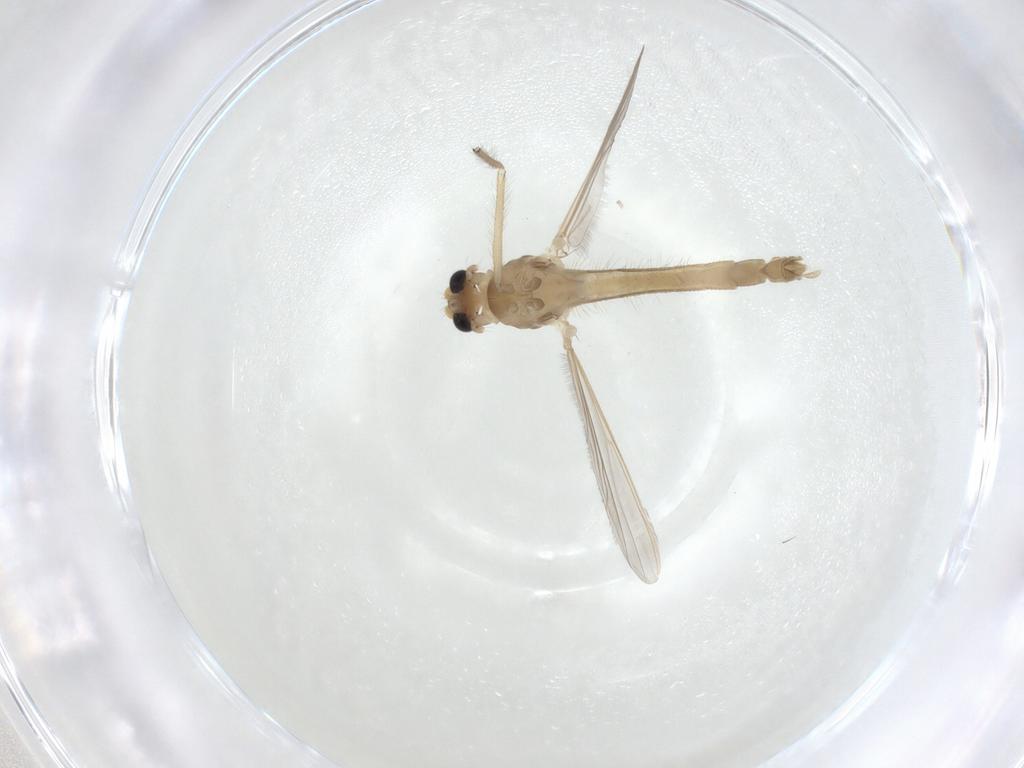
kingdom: Animalia
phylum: Arthropoda
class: Insecta
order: Diptera
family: Chironomidae
